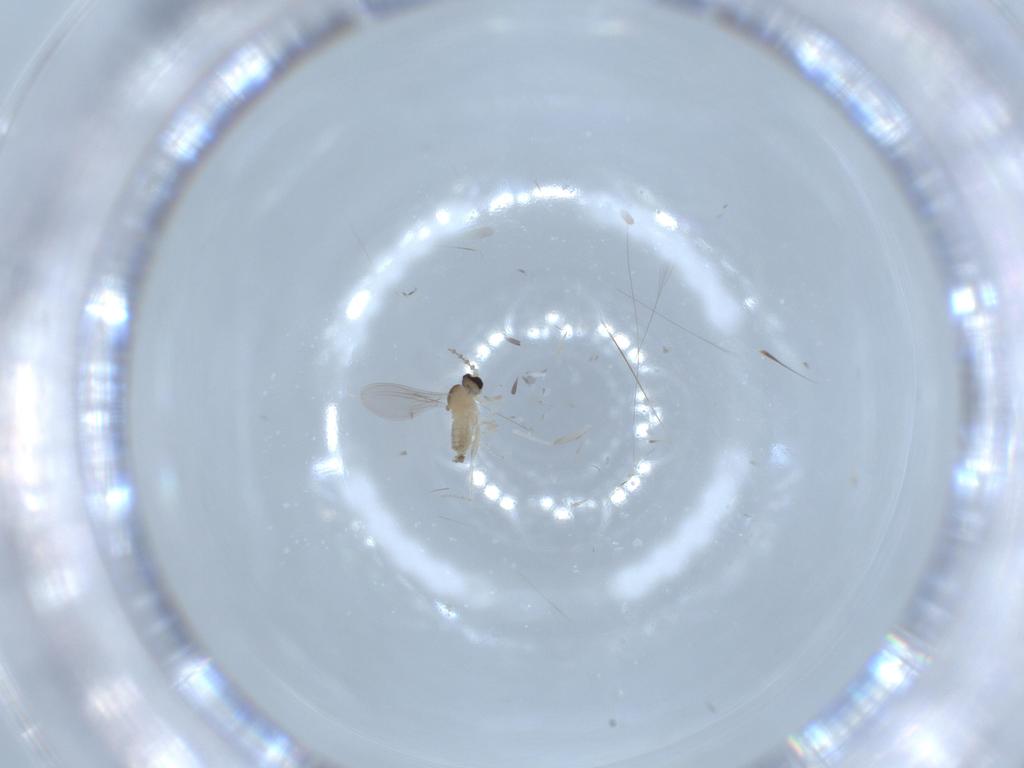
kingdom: Animalia
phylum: Arthropoda
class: Insecta
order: Diptera
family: Cecidomyiidae
